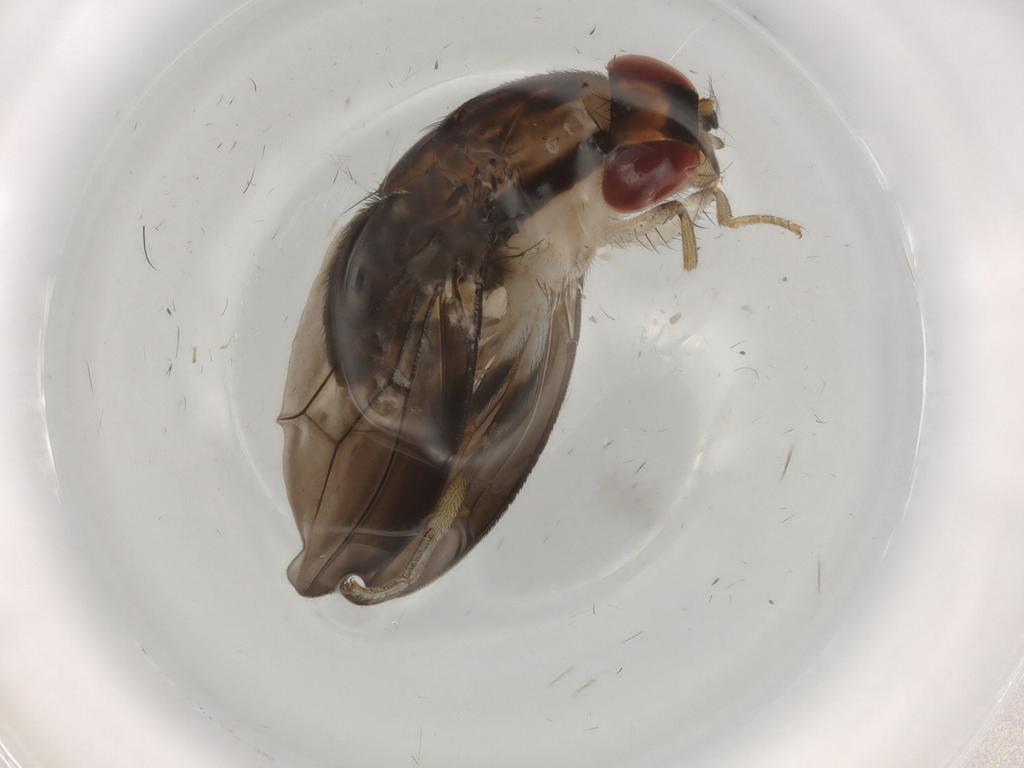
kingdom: Animalia
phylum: Arthropoda
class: Insecta
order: Diptera
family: Drosophilidae
